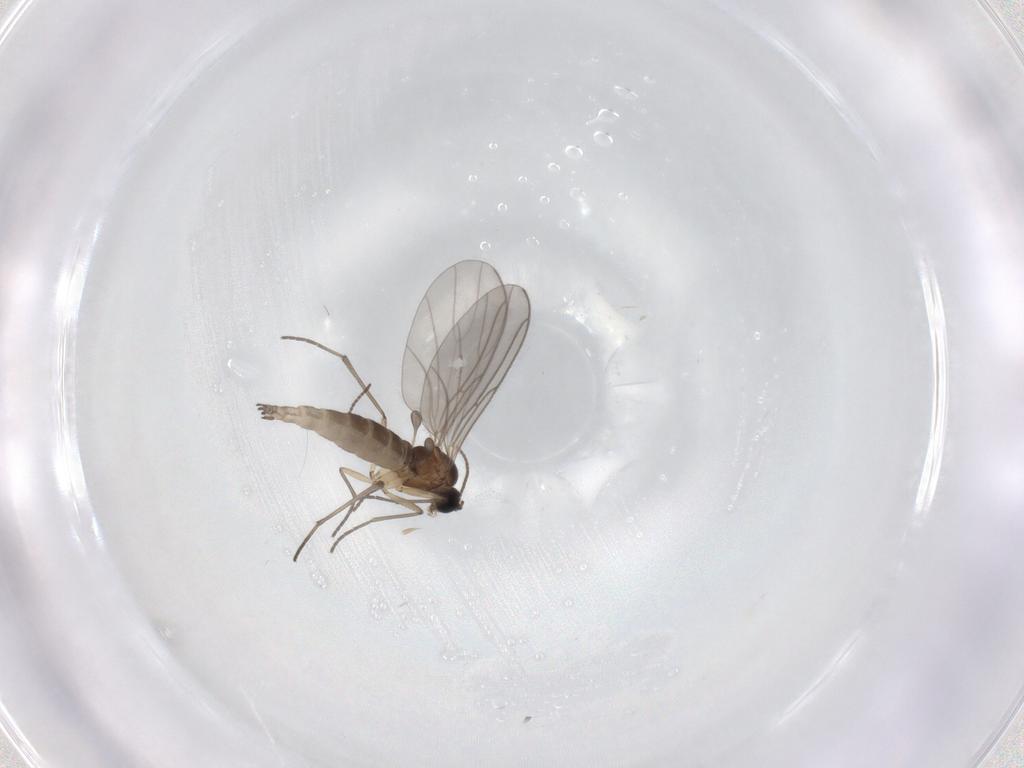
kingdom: Animalia
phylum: Arthropoda
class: Insecta
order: Diptera
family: Sciaridae
